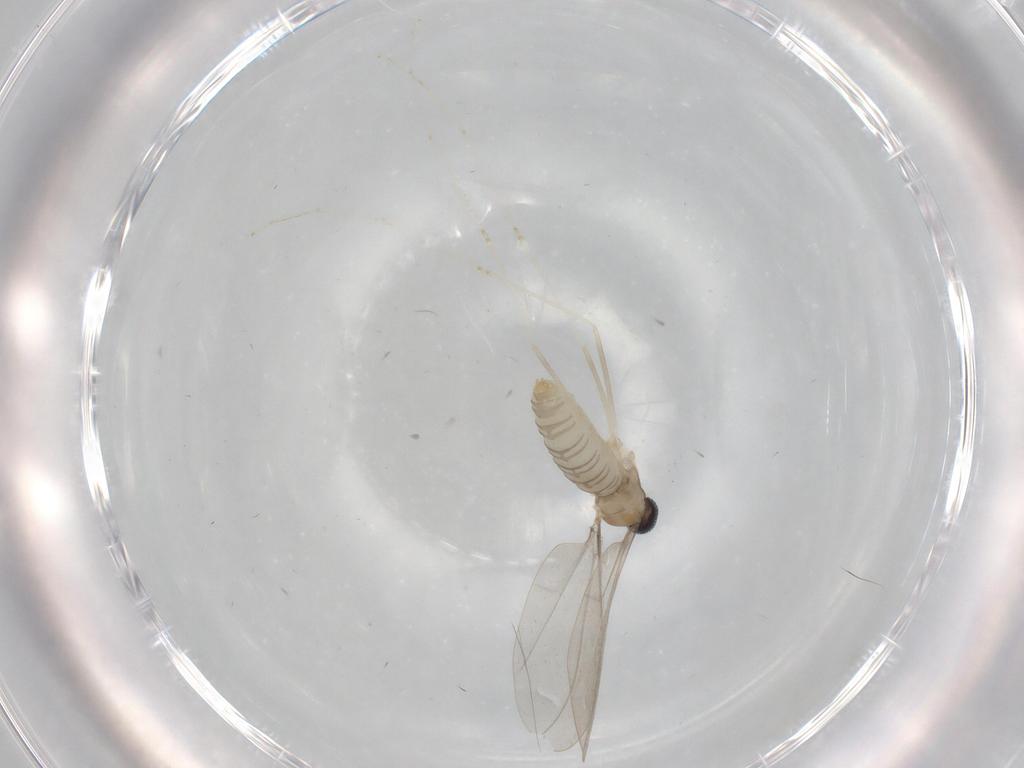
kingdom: Animalia
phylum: Arthropoda
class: Insecta
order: Diptera
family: Cecidomyiidae
